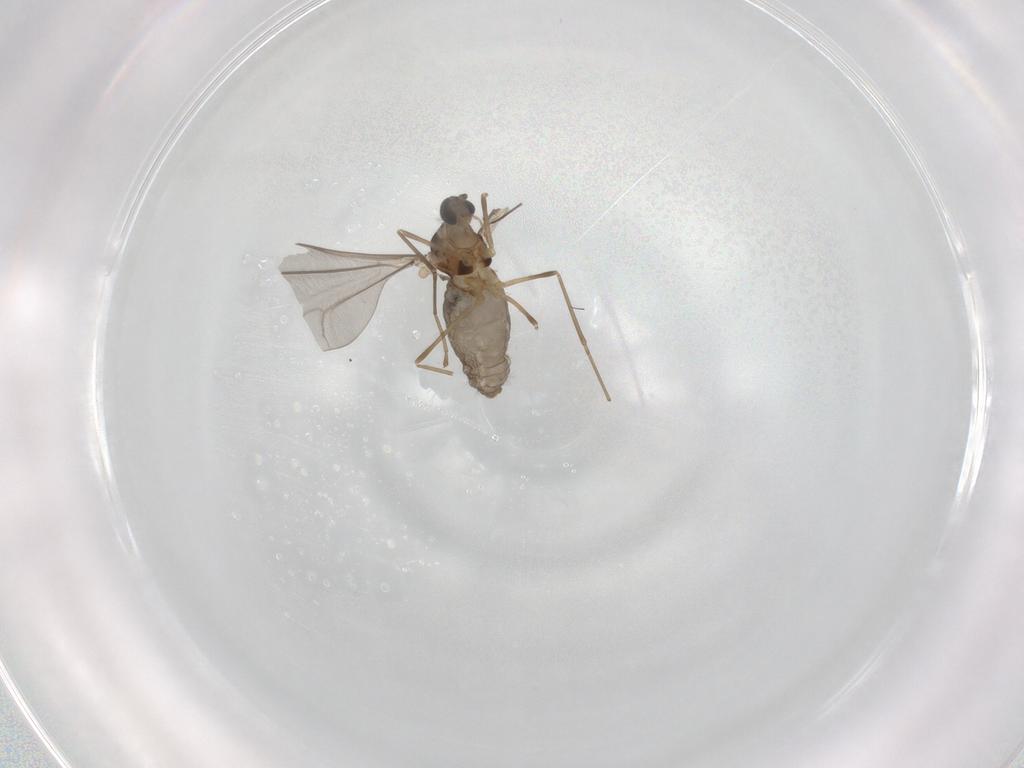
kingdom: Animalia
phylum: Arthropoda
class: Insecta
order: Diptera
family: Cecidomyiidae
